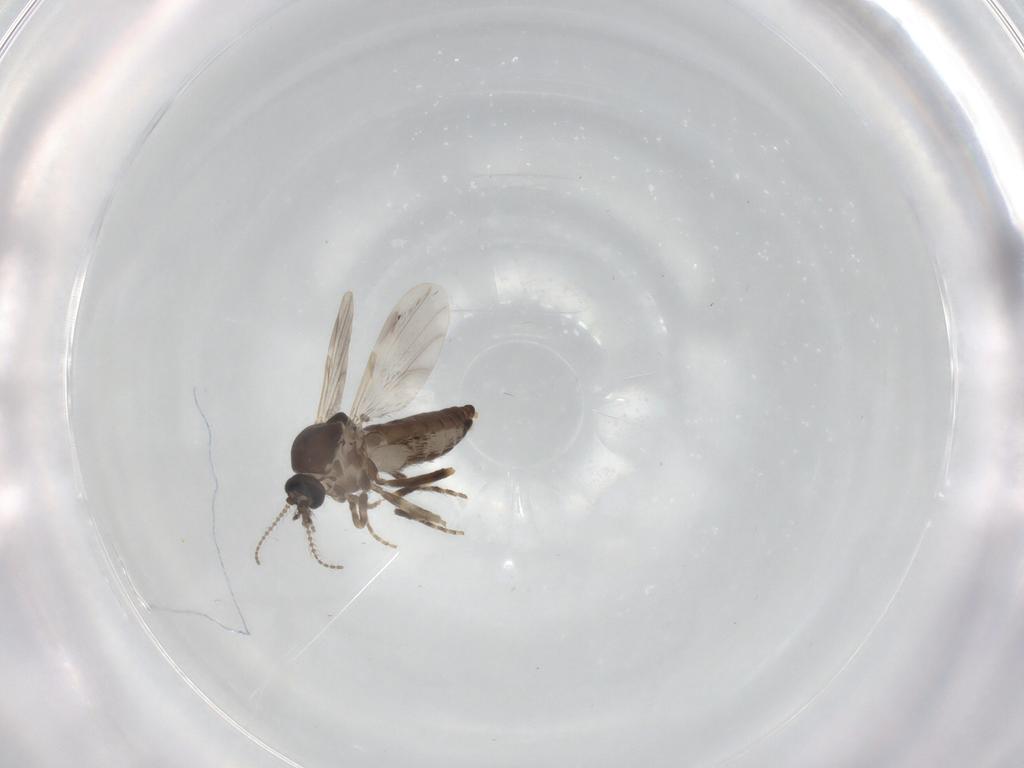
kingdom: Animalia
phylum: Arthropoda
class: Insecta
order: Diptera
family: Ceratopogonidae
